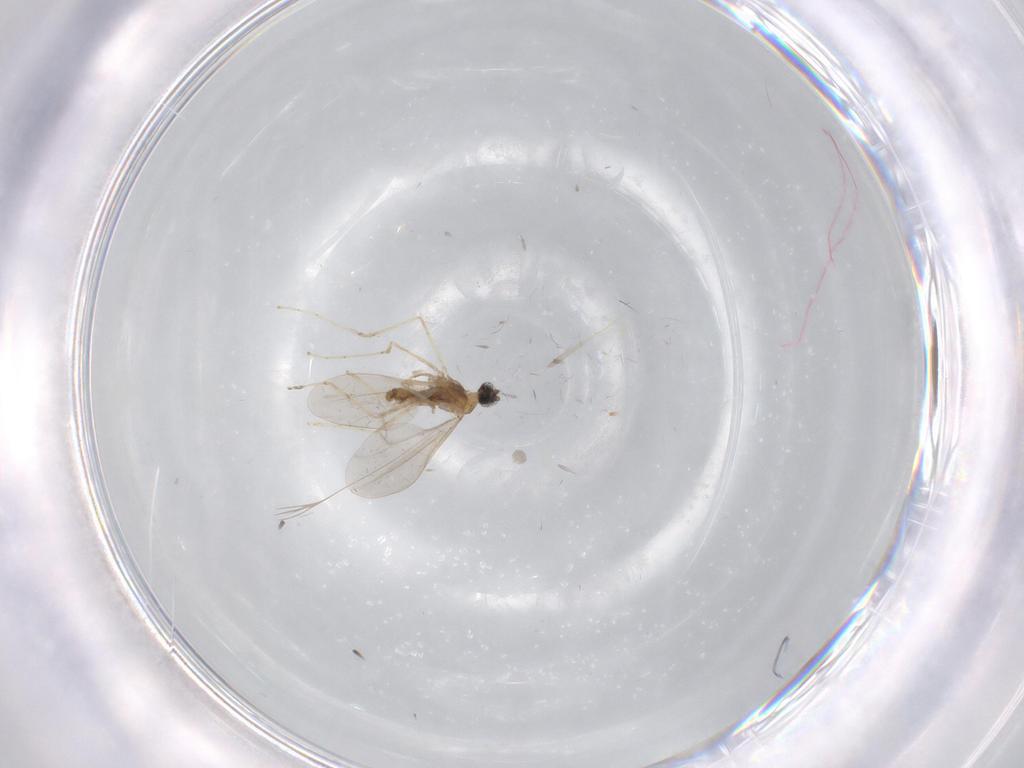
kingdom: Animalia
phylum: Arthropoda
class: Insecta
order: Diptera
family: Cecidomyiidae
